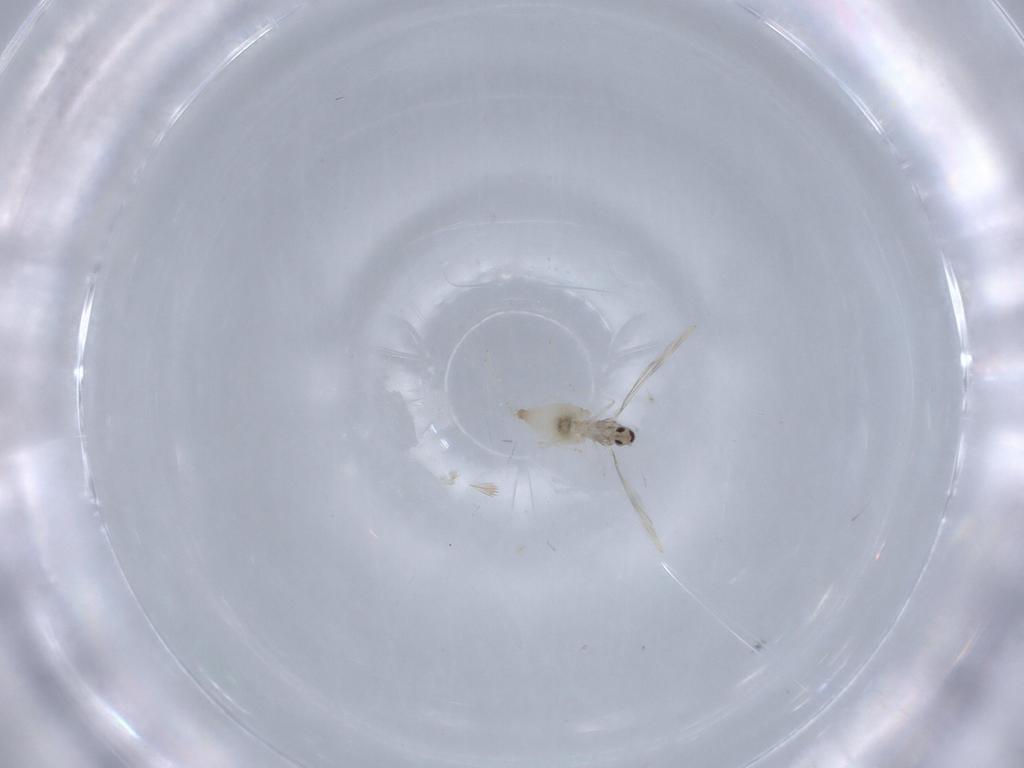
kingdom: Animalia
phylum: Arthropoda
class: Insecta
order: Diptera
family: Cecidomyiidae
